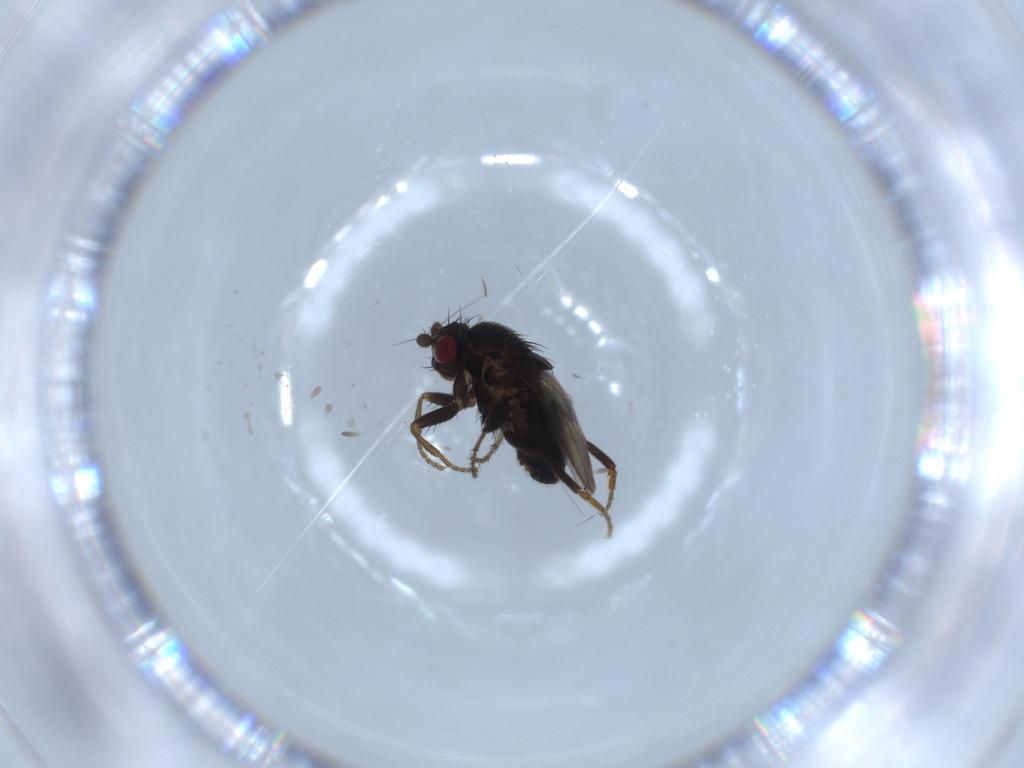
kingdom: Animalia
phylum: Arthropoda
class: Insecta
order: Diptera
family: Sphaeroceridae
